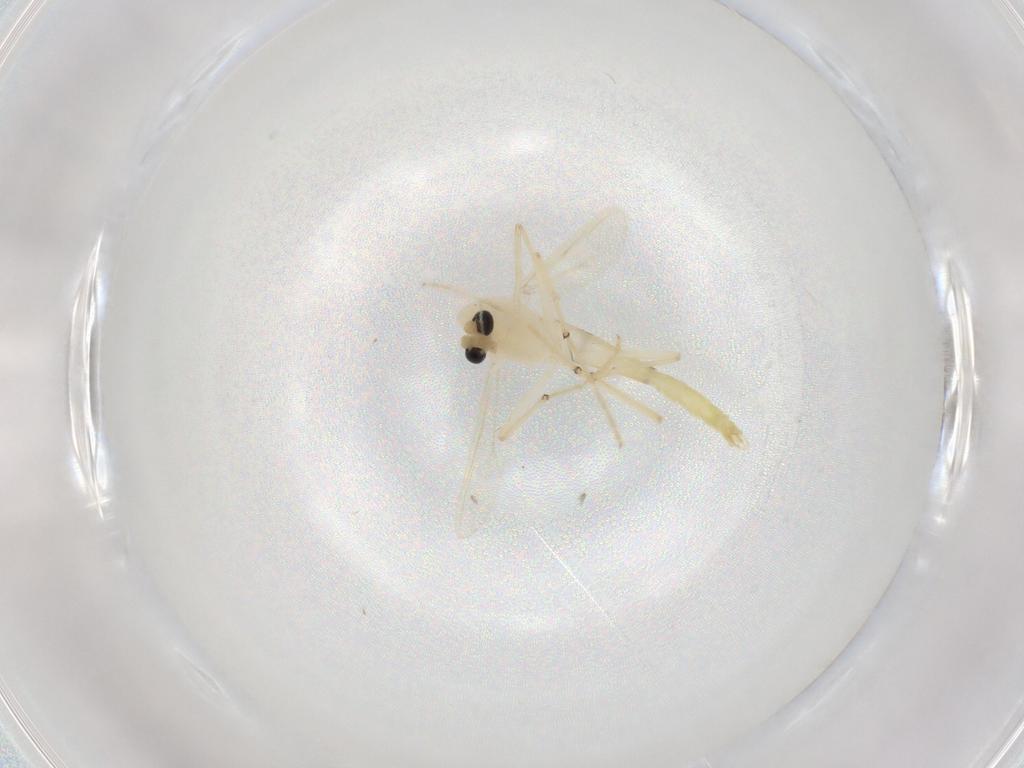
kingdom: Animalia
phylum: Arthropoda
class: Insecta
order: Diptera
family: Chironomidae
